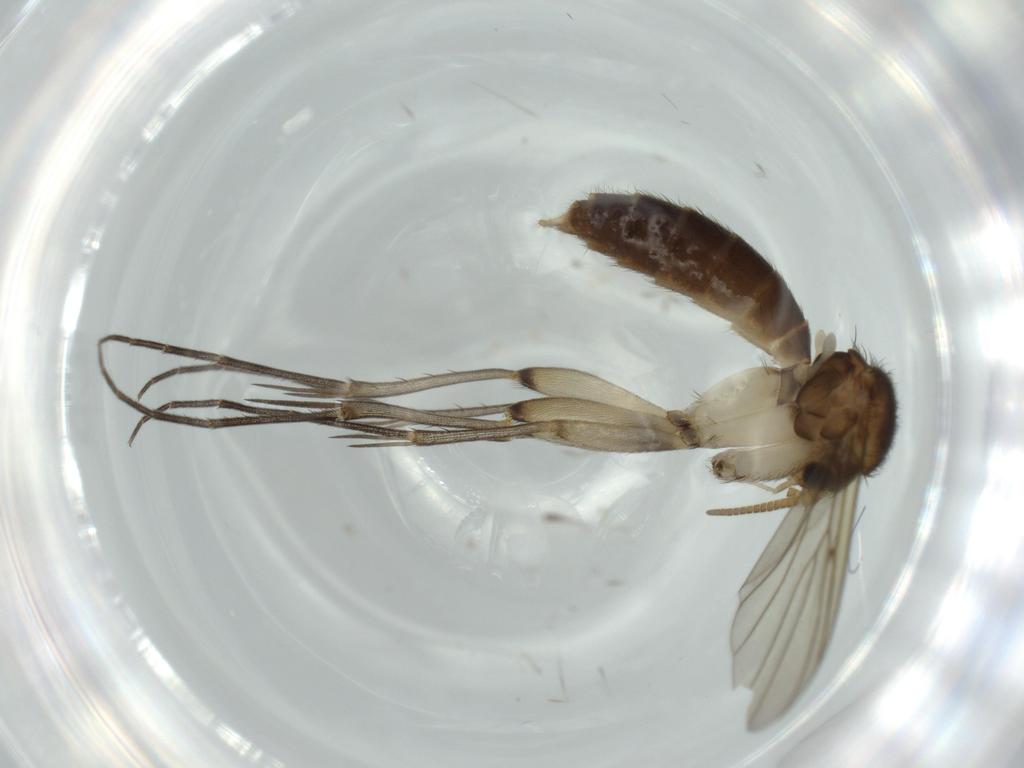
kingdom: Animalia
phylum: Arthropoda
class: Insecta
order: Diptera
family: Mycetophilidae
